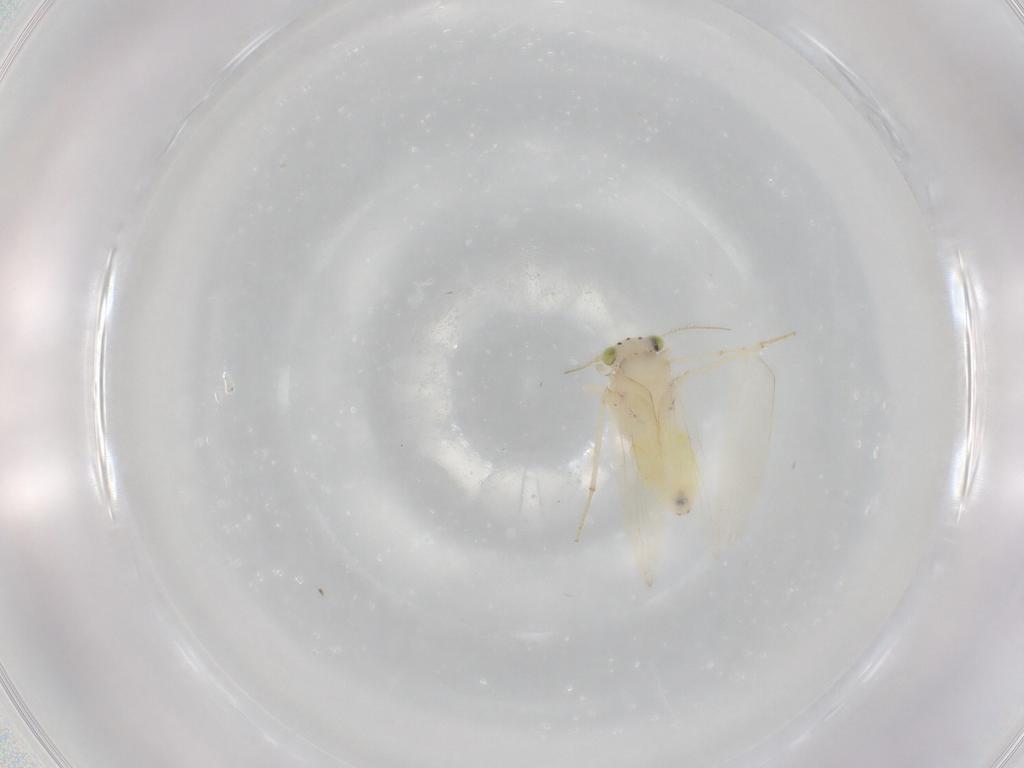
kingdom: Animalia
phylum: Arthropoda
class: Insecta
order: Psocodea
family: Lepidopsocidae
